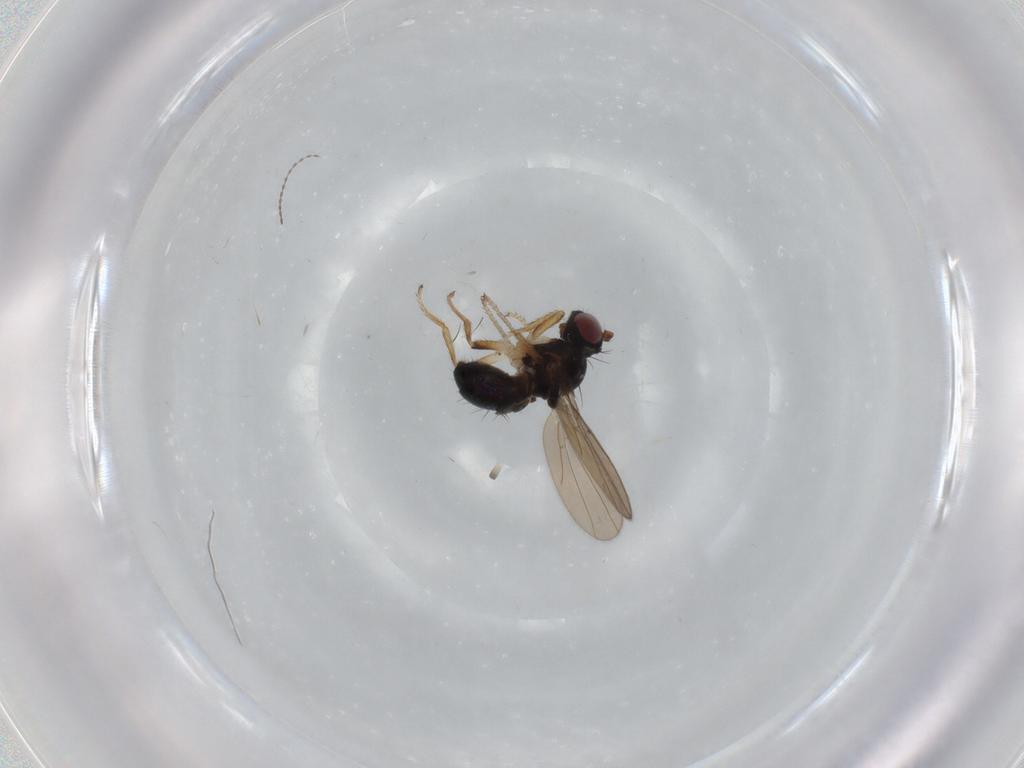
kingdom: Animalia
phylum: Arthropoda
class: Insecta
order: Diptera
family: Ephydridae
